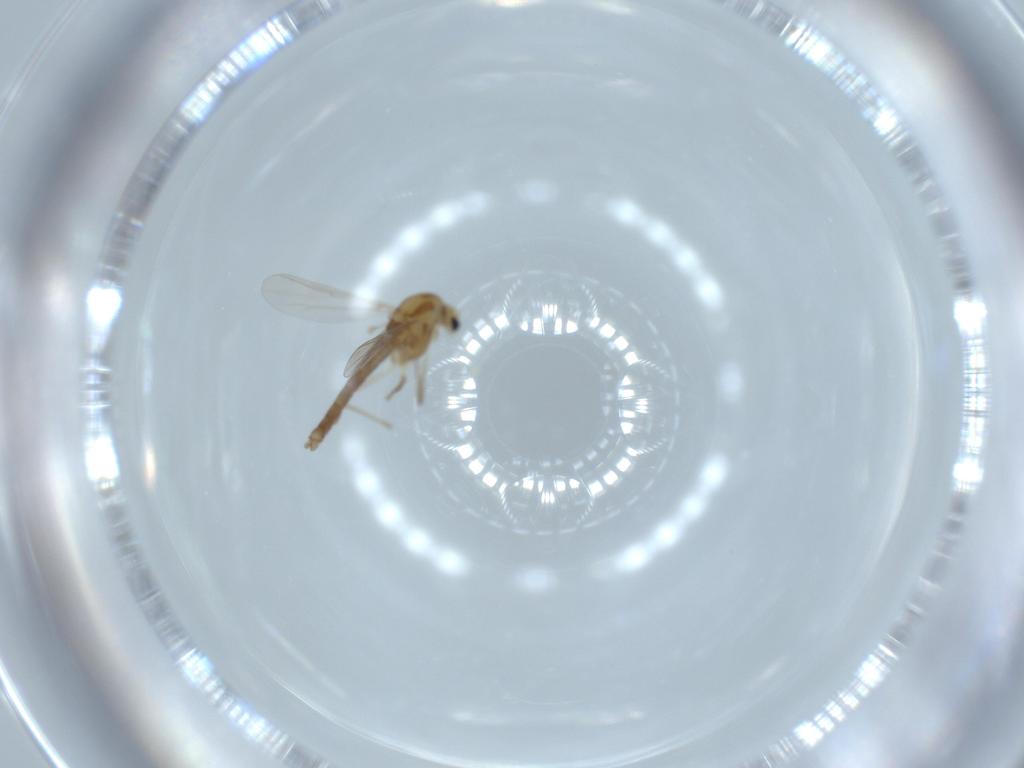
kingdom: Animalia
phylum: Arthropoda
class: Insecta
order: Diptera
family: Chironomidae
